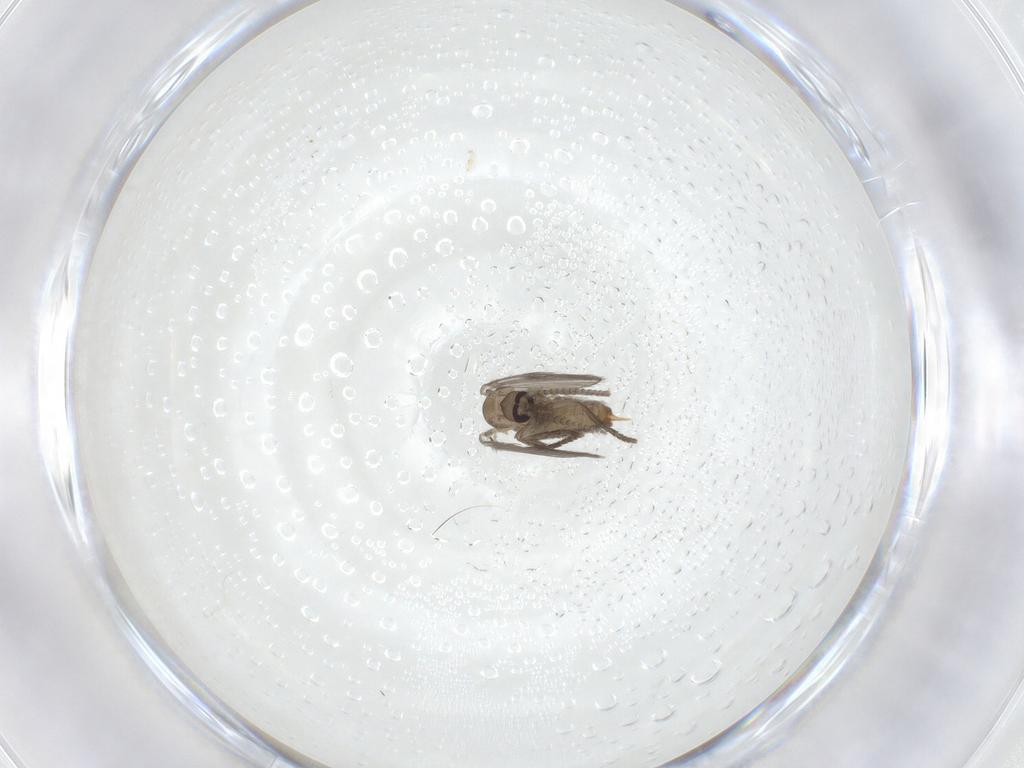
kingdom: Animalia
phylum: Arthropoda
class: Insecta
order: Diptera
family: Psychodidae
